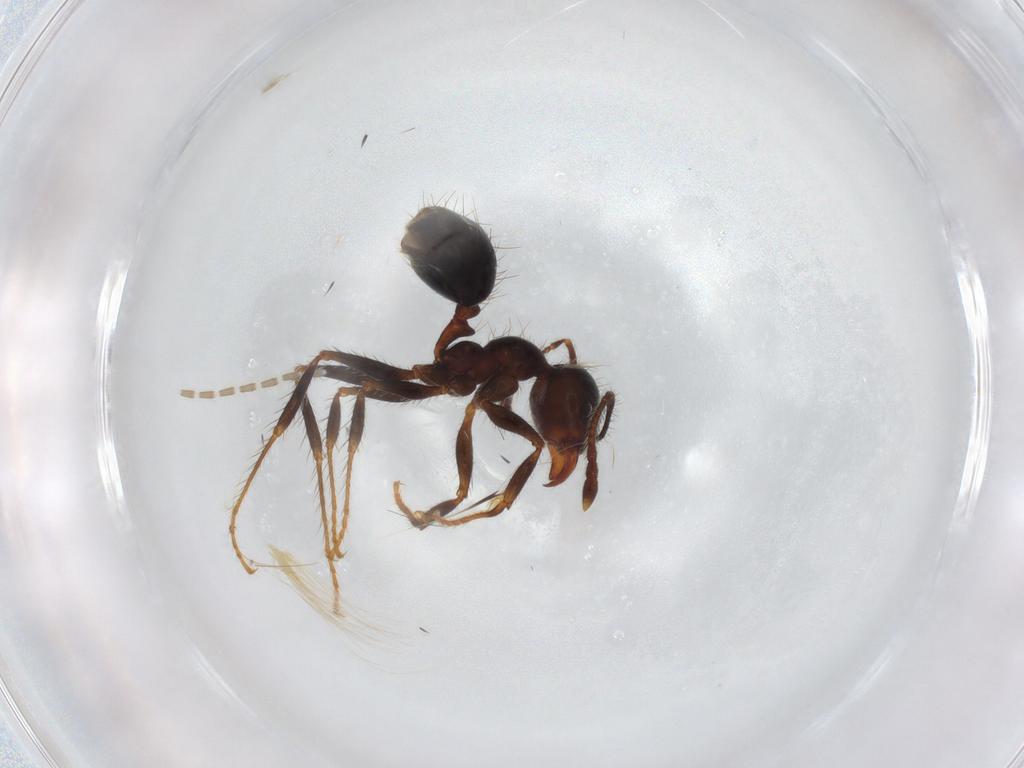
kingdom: Animalia
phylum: Arthropoda
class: Insecta
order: Hymenoptera
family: Formicidae
